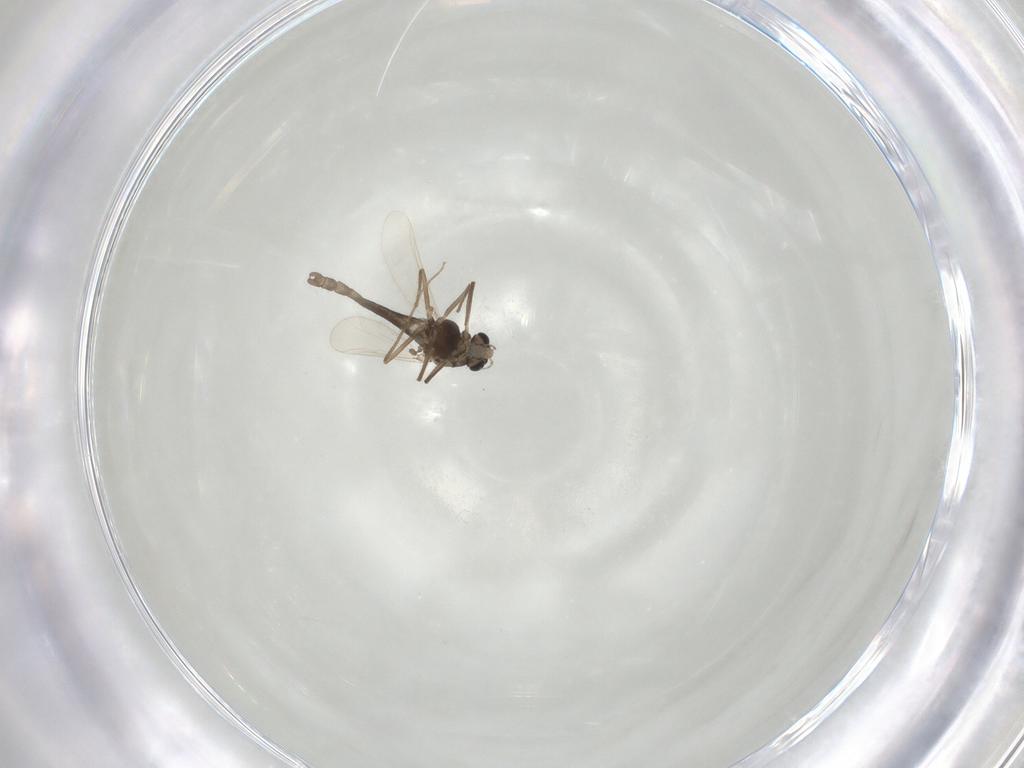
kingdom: Animalia
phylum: Arthropoda
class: Insecta
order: Diptera
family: Chironomidae
